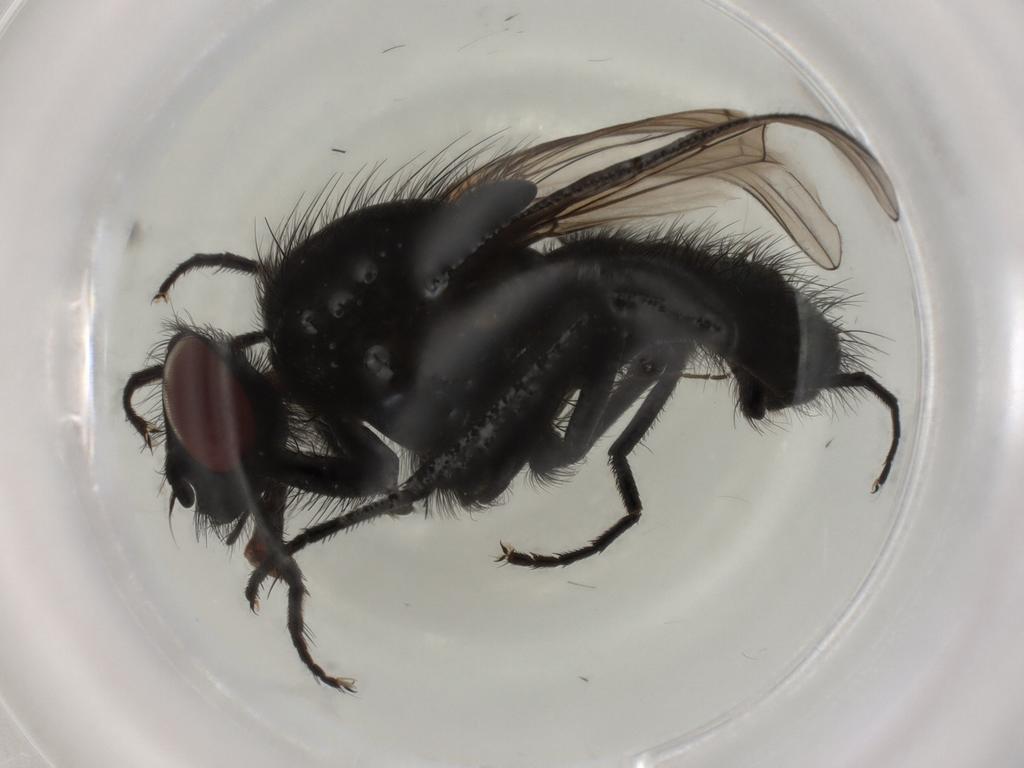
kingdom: Animalia
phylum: Arthropoda
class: Insecta
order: Diptera
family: Muscidae
